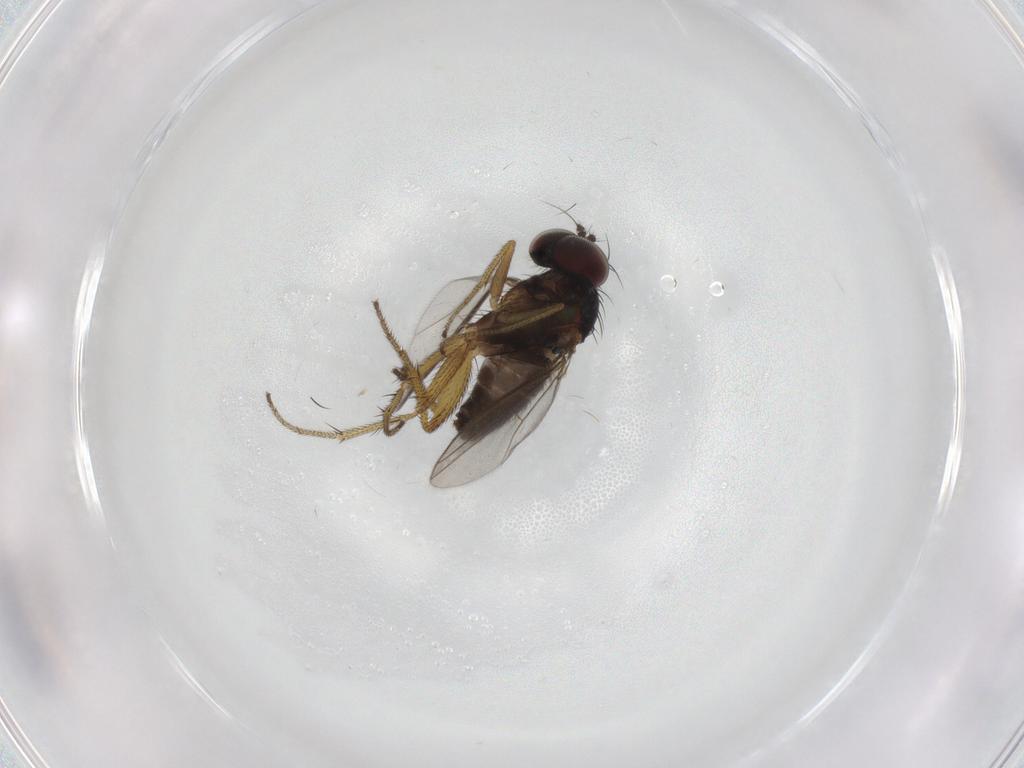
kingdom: Animalia
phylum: Arthropoda
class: Insecta
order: Diptera
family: Dolichopodidae
